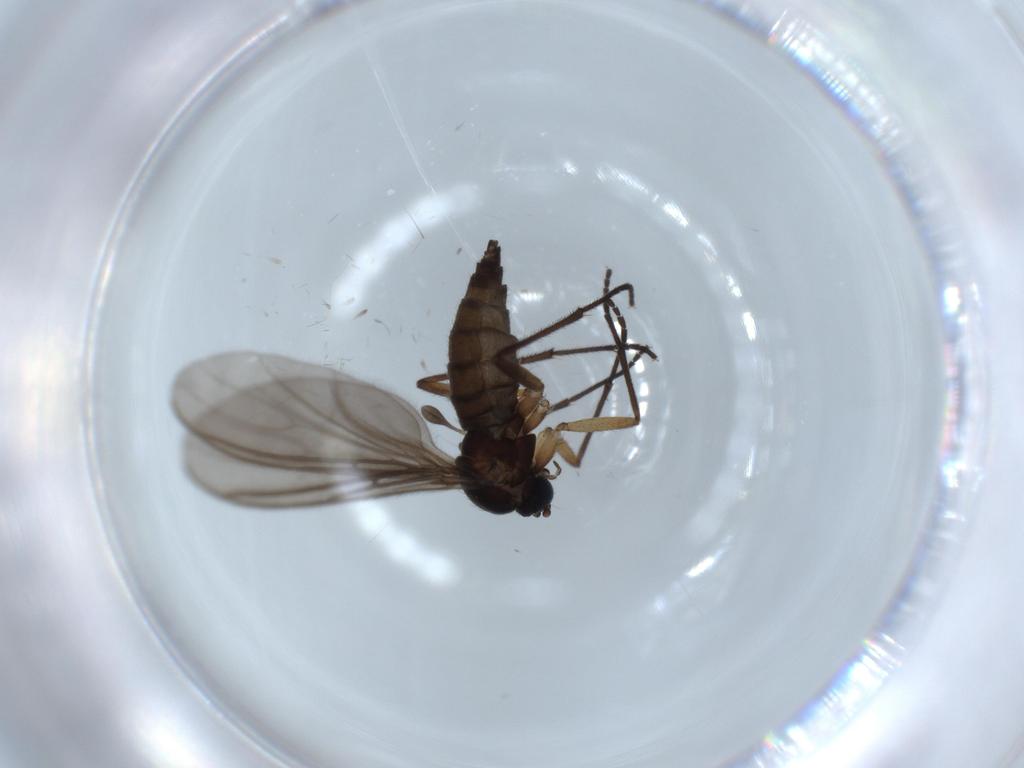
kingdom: Animalia
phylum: Arthropoda
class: Insecta
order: Diptera
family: Sciaridae
